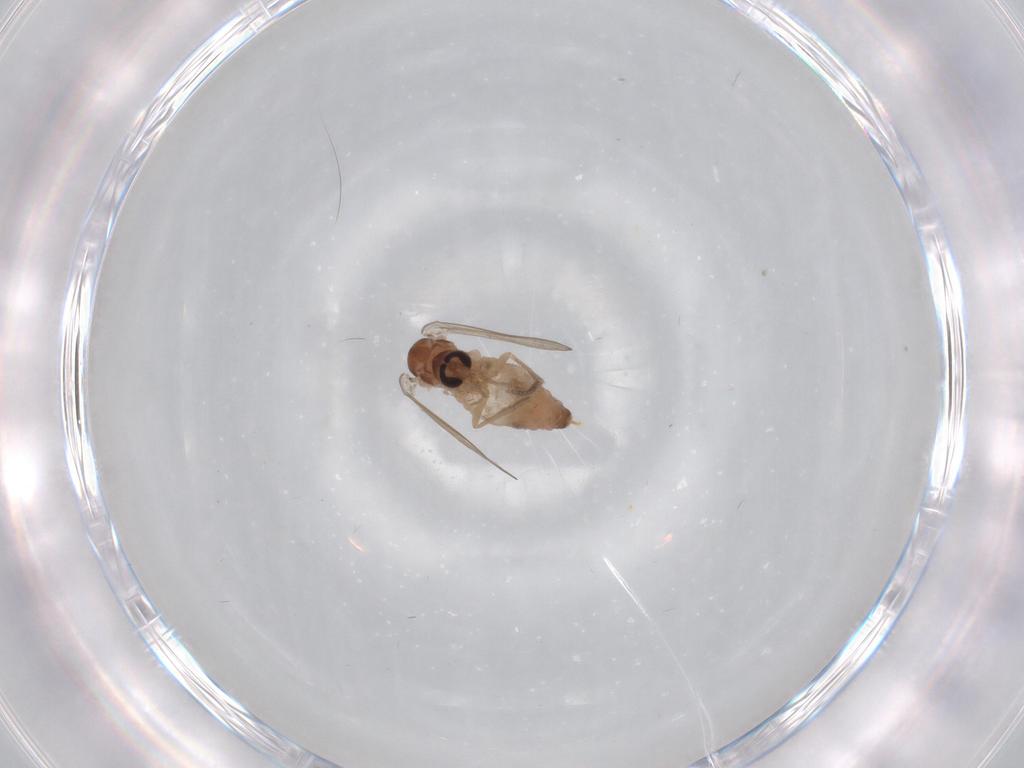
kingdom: Animalia
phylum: Arthropoda
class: Insecta
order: Diptera
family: Psychodidae
